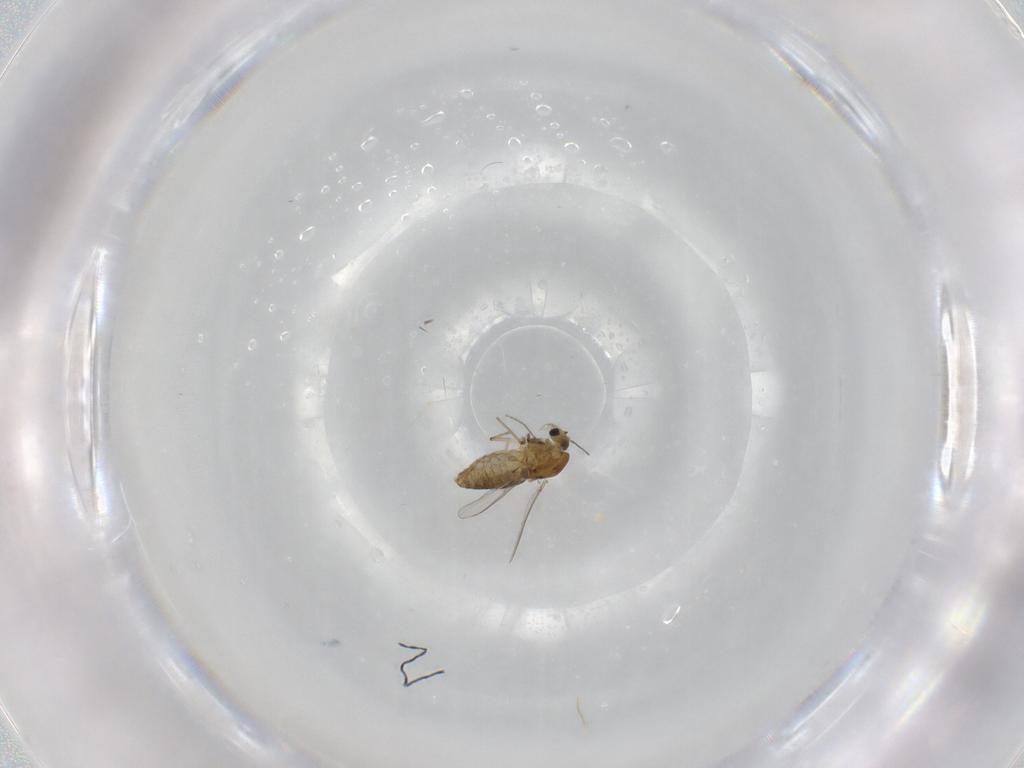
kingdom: Animalia
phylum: Arthropoda
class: Insecta
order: Diptera
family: Chironomidae
